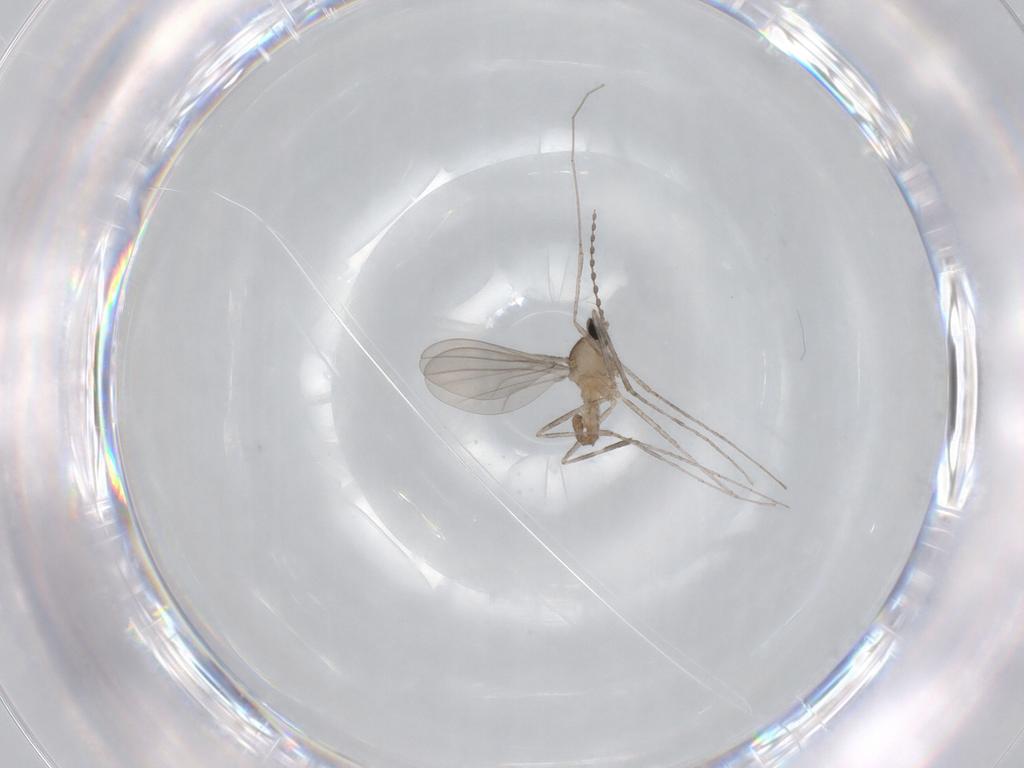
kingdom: Animalia
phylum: Arthropoda
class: Insecta
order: Diptera
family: Cecidomyiidae
